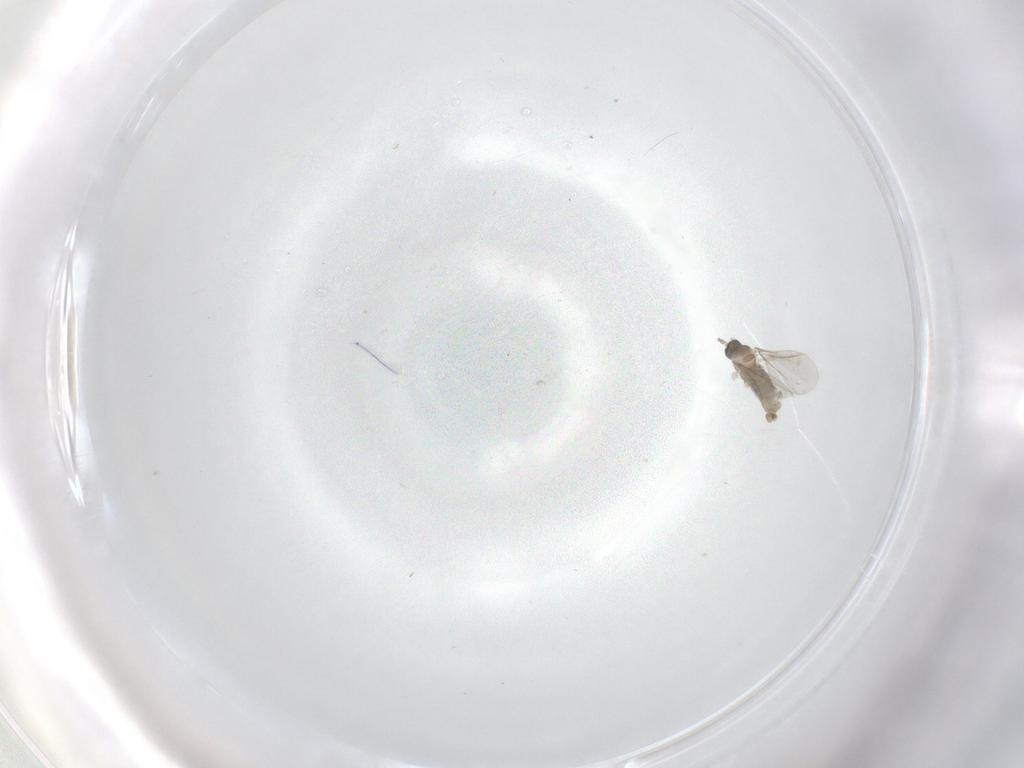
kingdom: Animalia
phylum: Arthropoda
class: Insecta
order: Diptera
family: Cecidomyiidae
